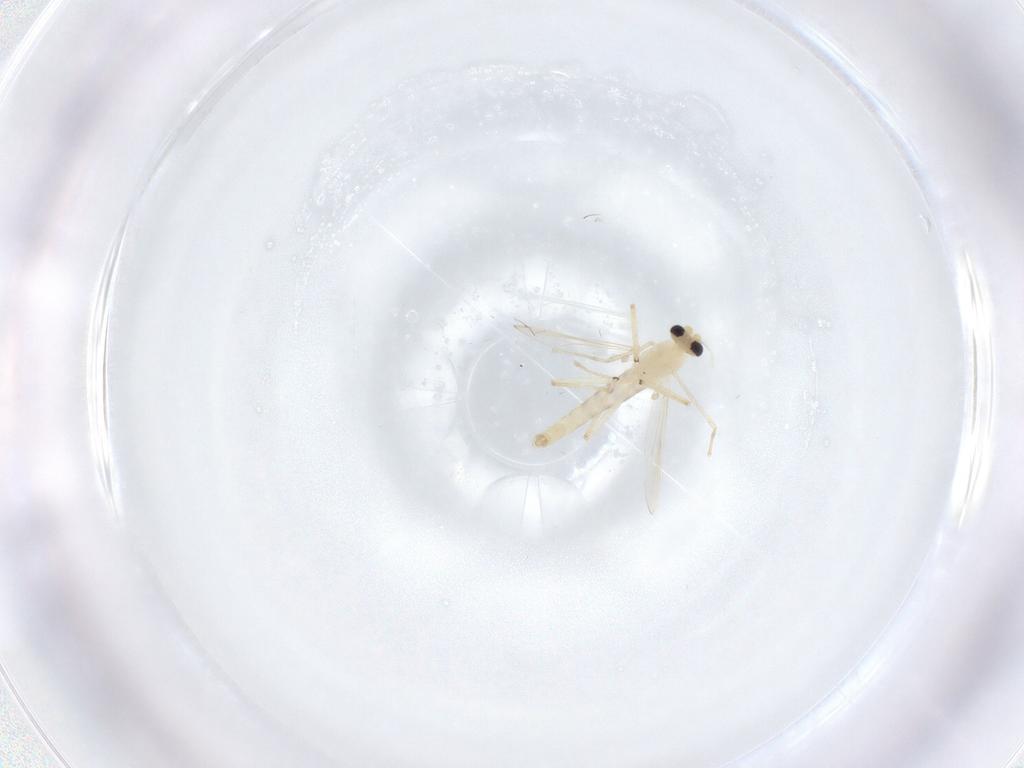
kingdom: Animalia
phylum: Arthropoda
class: Insecta
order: Diptera
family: Chironomidae
